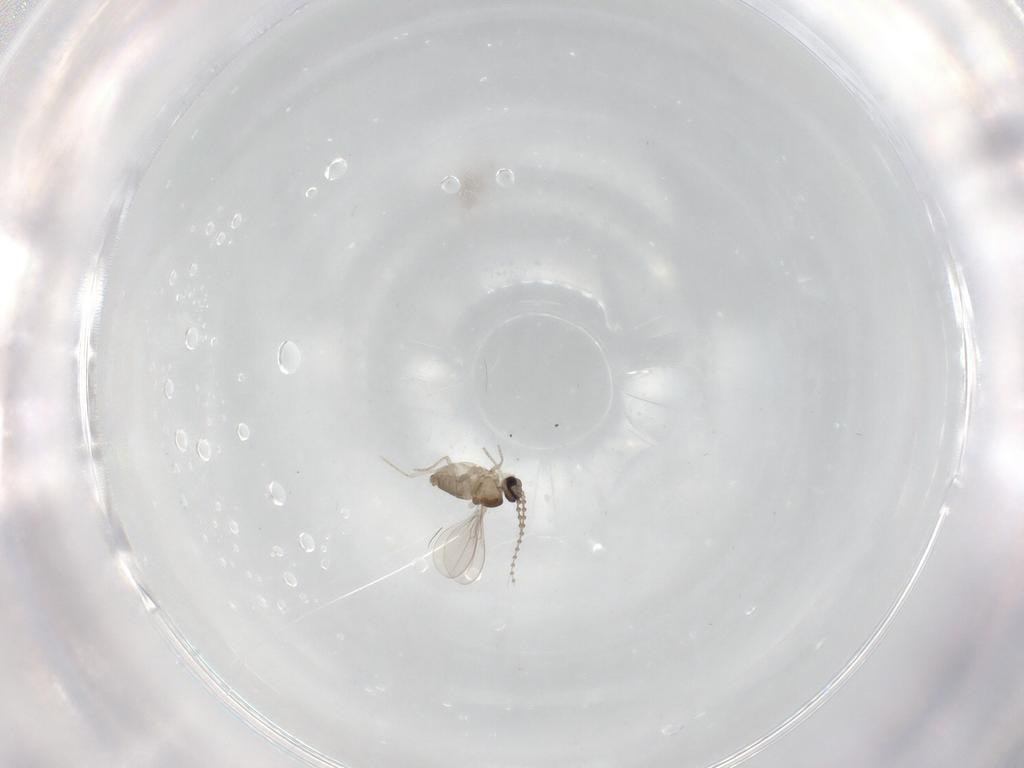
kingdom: Animalia
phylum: Arthropoda
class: Insecta
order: Diptera
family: Cecidomyiidae
